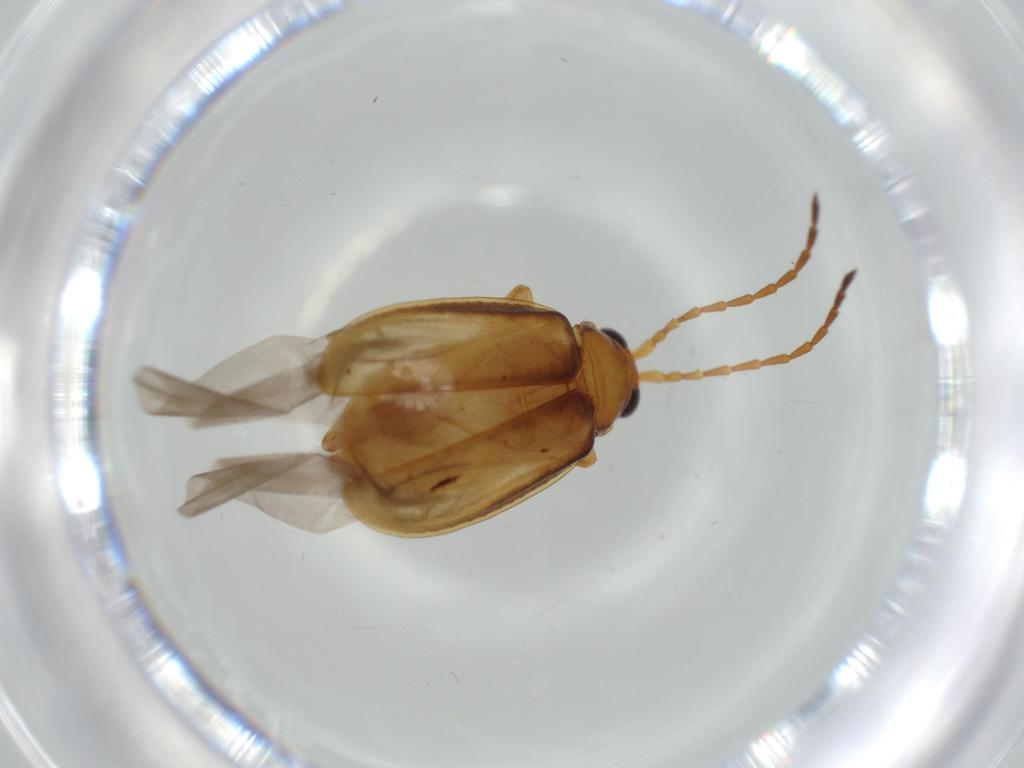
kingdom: Animalia
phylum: Arthropoda
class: Insecta
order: Coleoptera
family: Chrysomelidae
